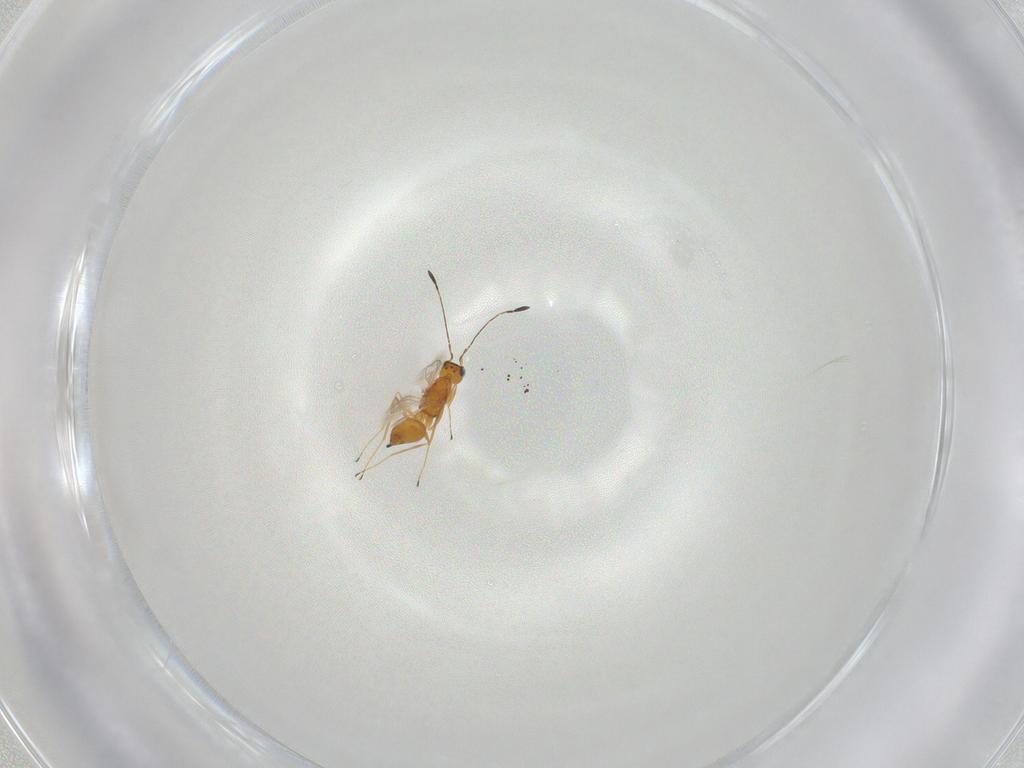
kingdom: Animalia
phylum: Arthropoda
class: Insecta
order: Hymenoptera
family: Mymaridae
